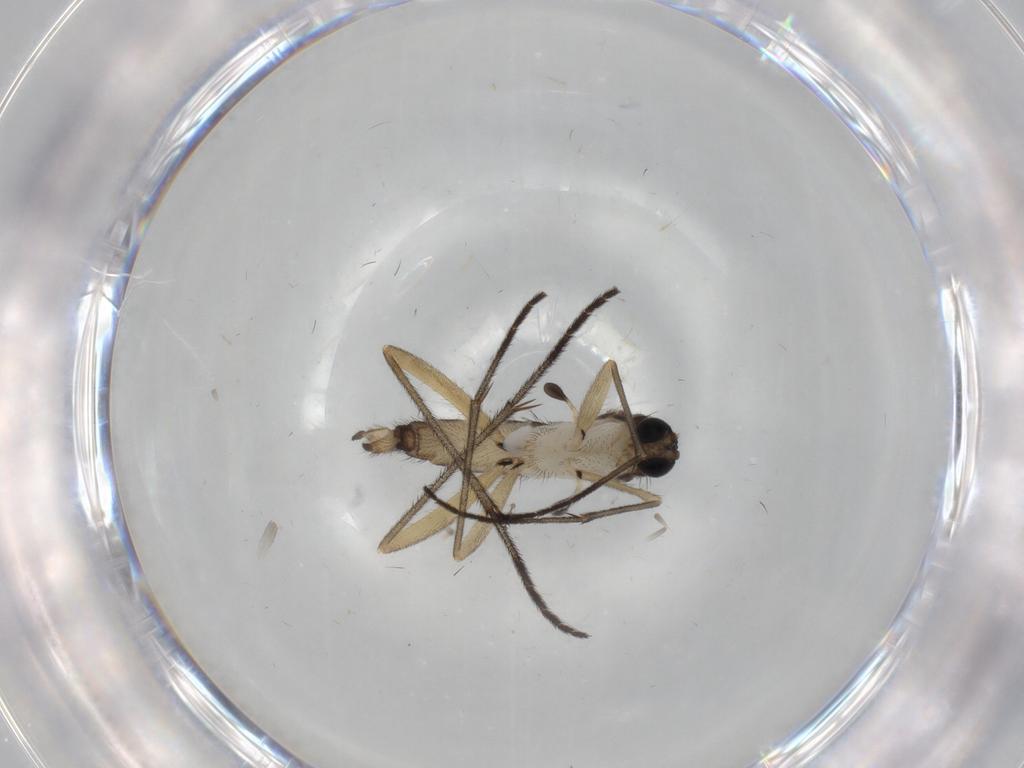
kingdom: Animalia
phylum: Arthropoda
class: Insecta
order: Diptera
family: Sciaridae
